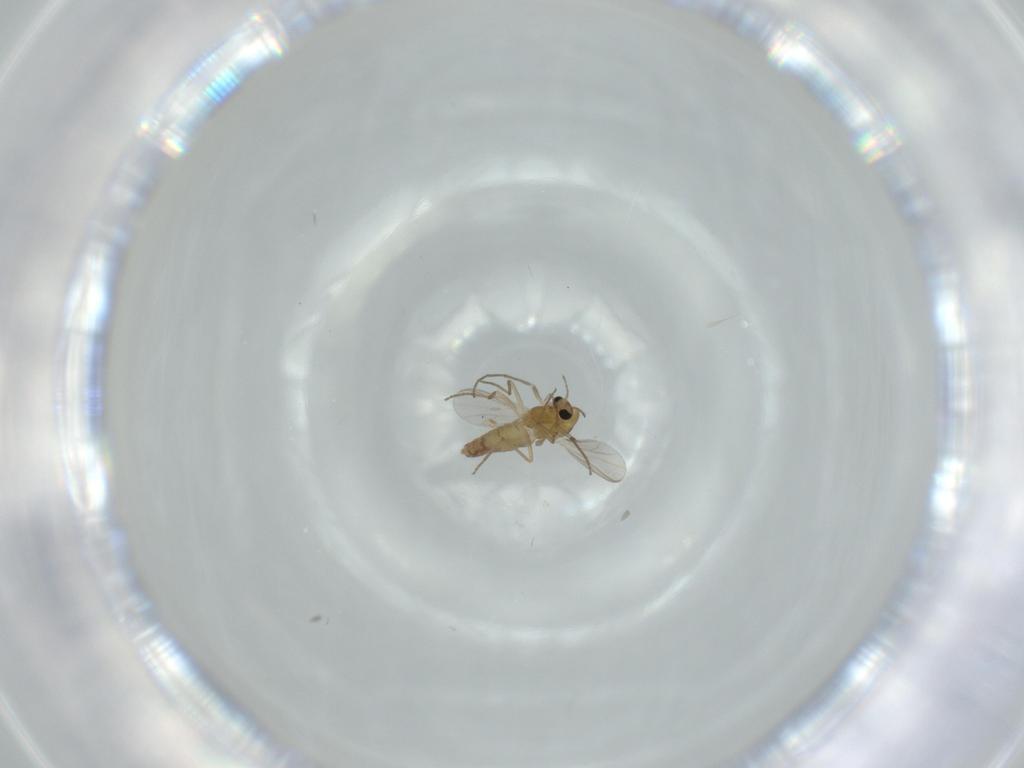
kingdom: Animalia
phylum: Arthropoda
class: Insecta
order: Diptera
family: Chironomidae
